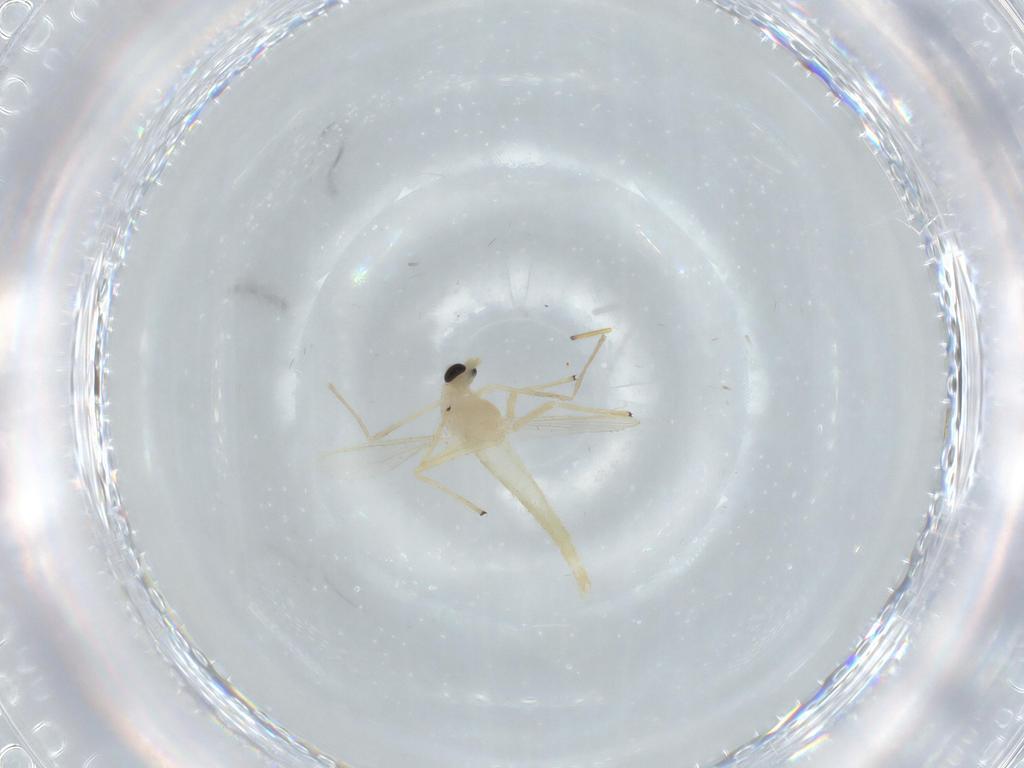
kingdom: Animalia
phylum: Arthropoda
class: Insecta
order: Diptera
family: Chironomidae
